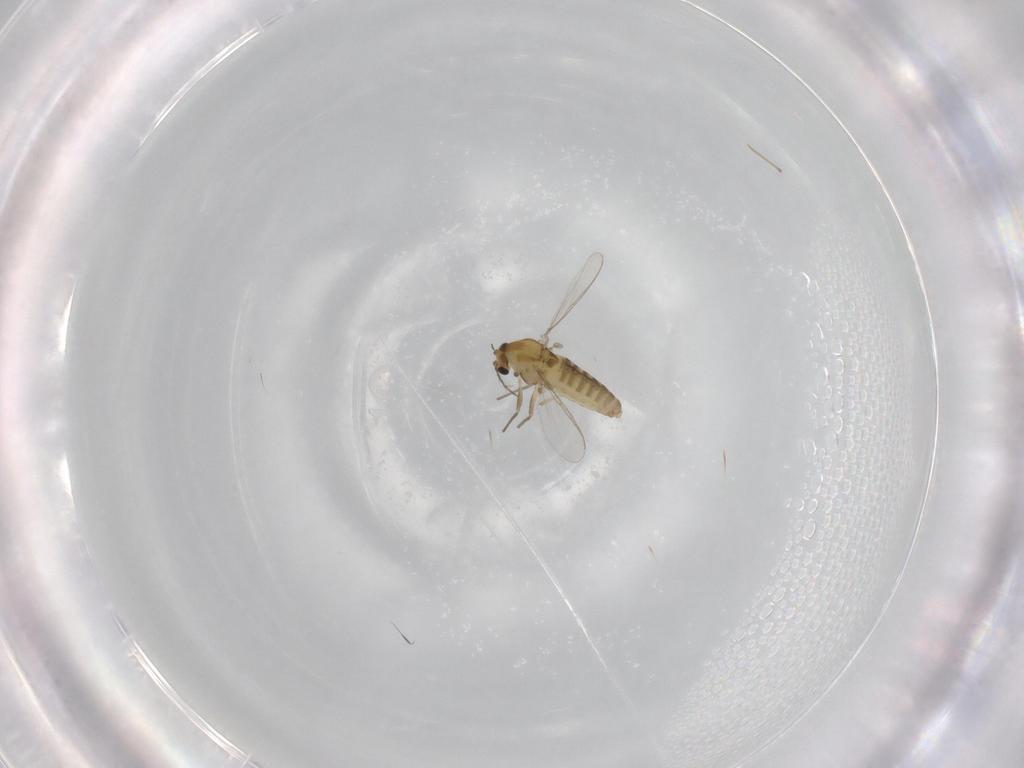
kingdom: Animalia
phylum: Arthropoda
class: Insecta
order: Diptera
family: Chironomidae
